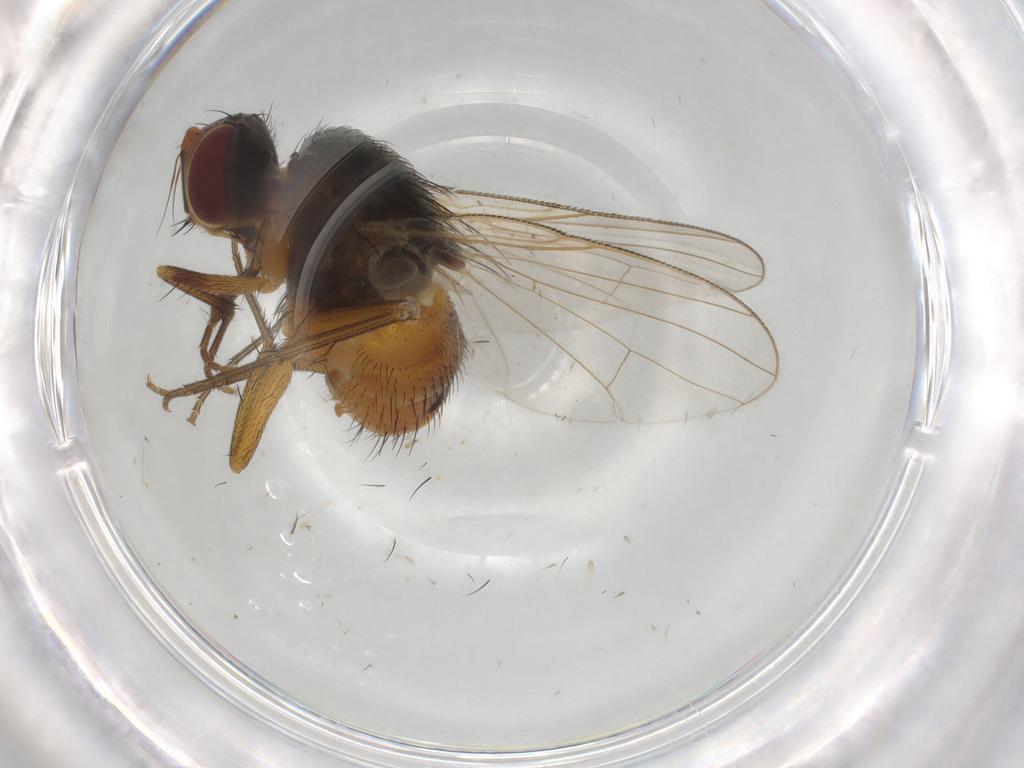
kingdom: Animalia
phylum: Arthropoda
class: Insecta
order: Diptera
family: Muscidae
